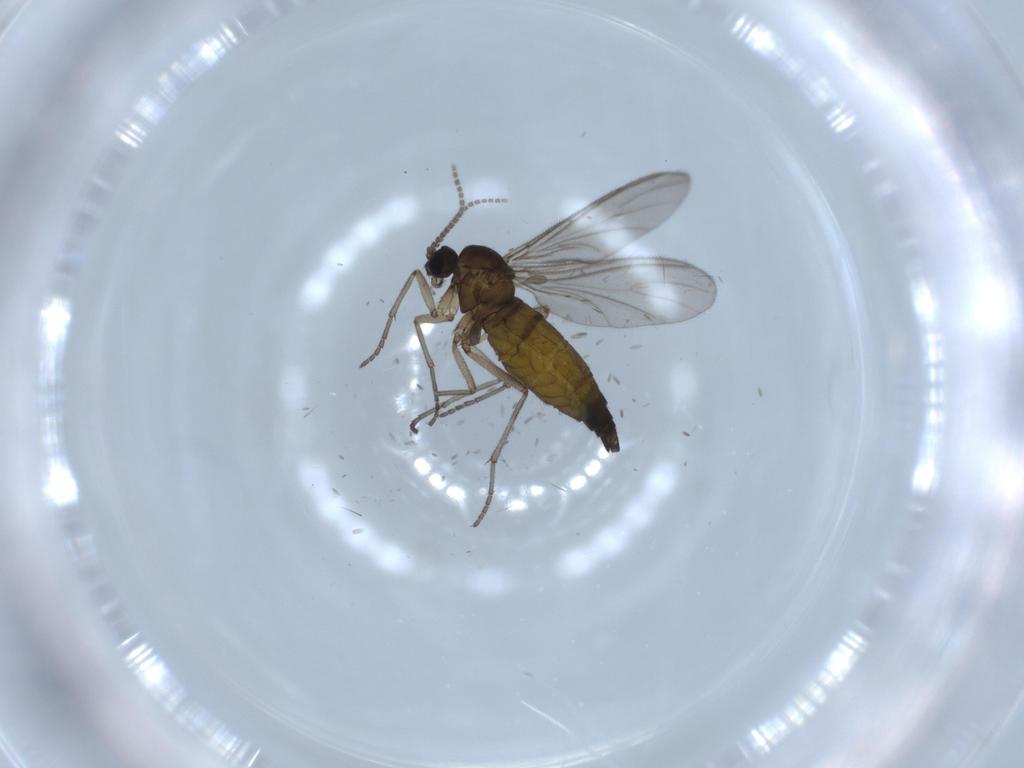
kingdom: Animalia
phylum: Arthropoda
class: Insecta
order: Diptera
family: Sciaridae
